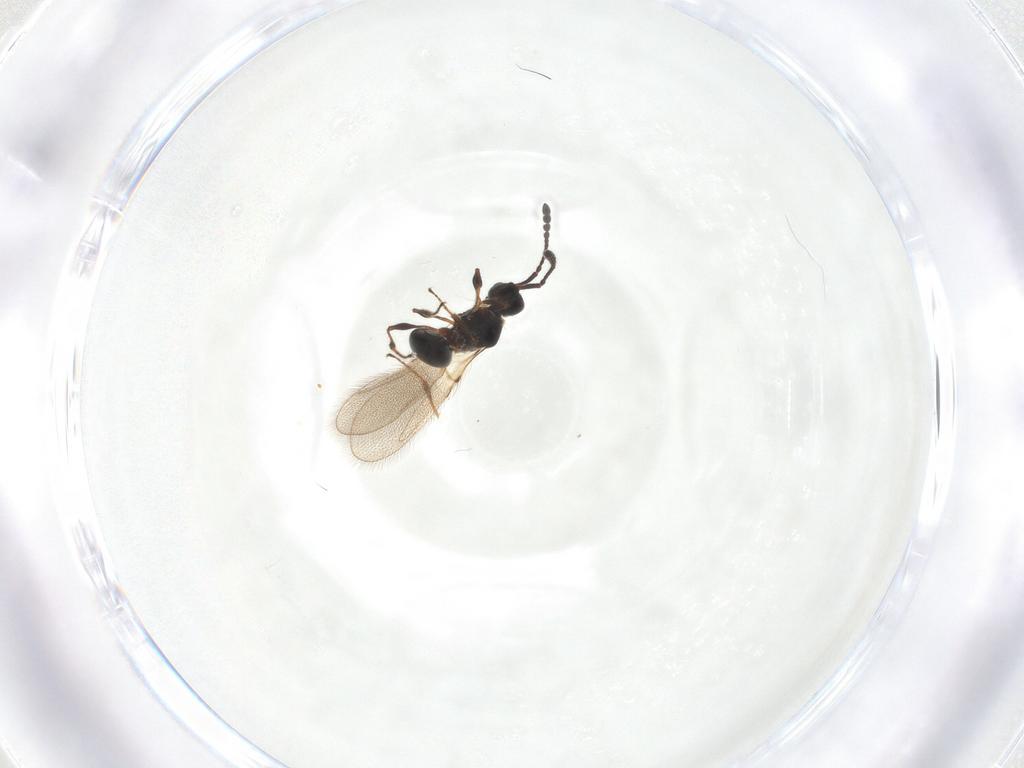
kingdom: Animalia
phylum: Arthropoda
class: Insecta
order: Hymenoptera
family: Diapriidae
